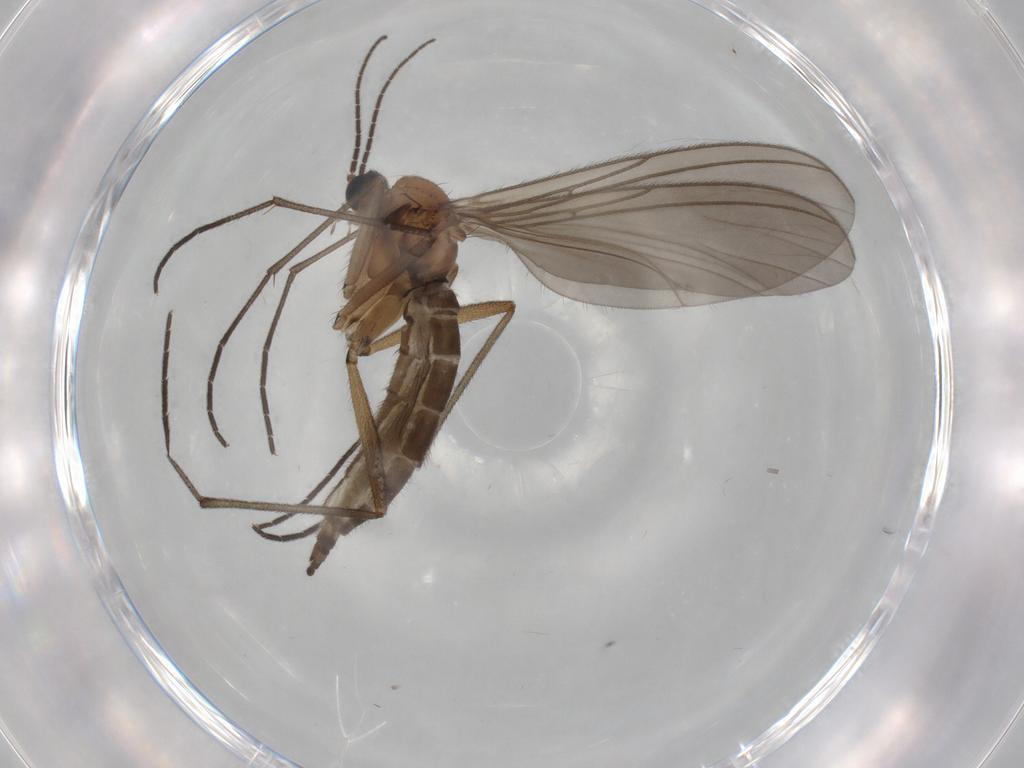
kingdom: Animalia
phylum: Arthropoda
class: Insecta
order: Diptera
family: Sciaridae
